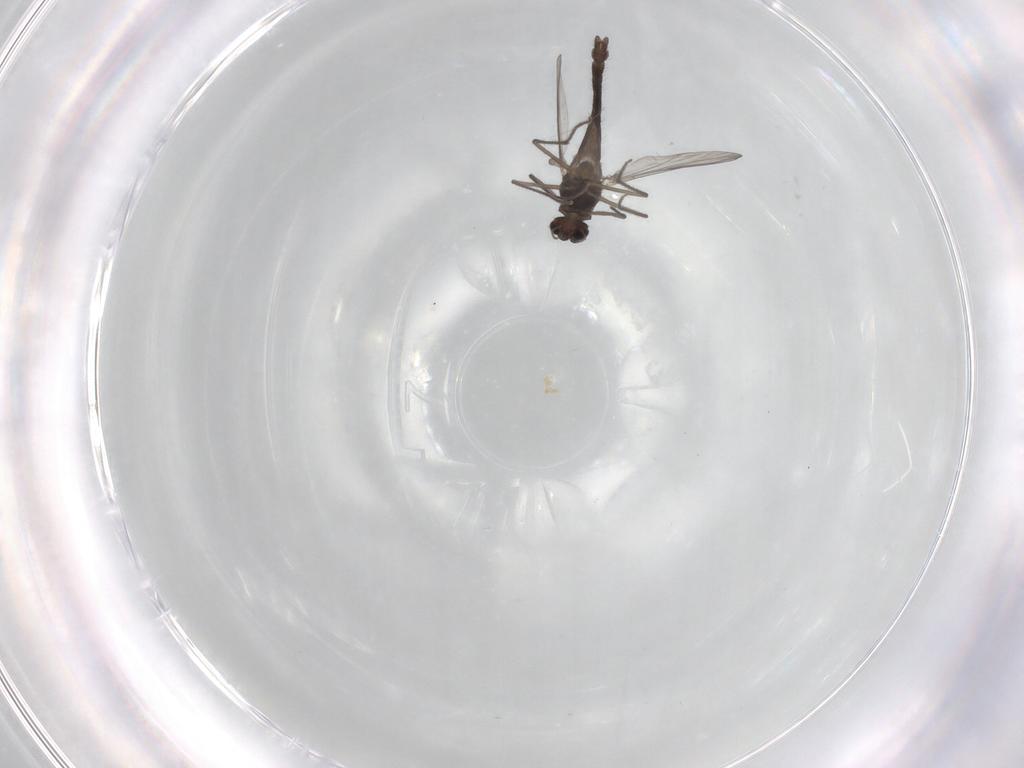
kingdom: Animalia
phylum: Arthropoda
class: Insecta
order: Diptera
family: Chironomidae
